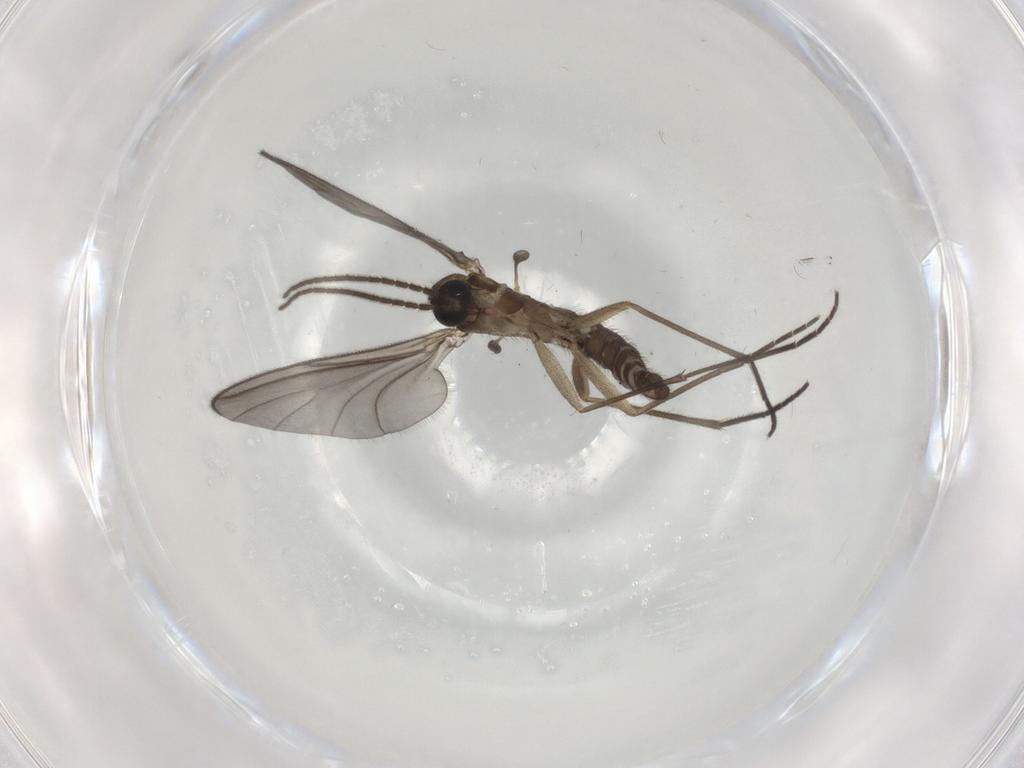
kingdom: Animalia
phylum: Arthropoda
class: Insecta
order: Diptera
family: Sciaridae
